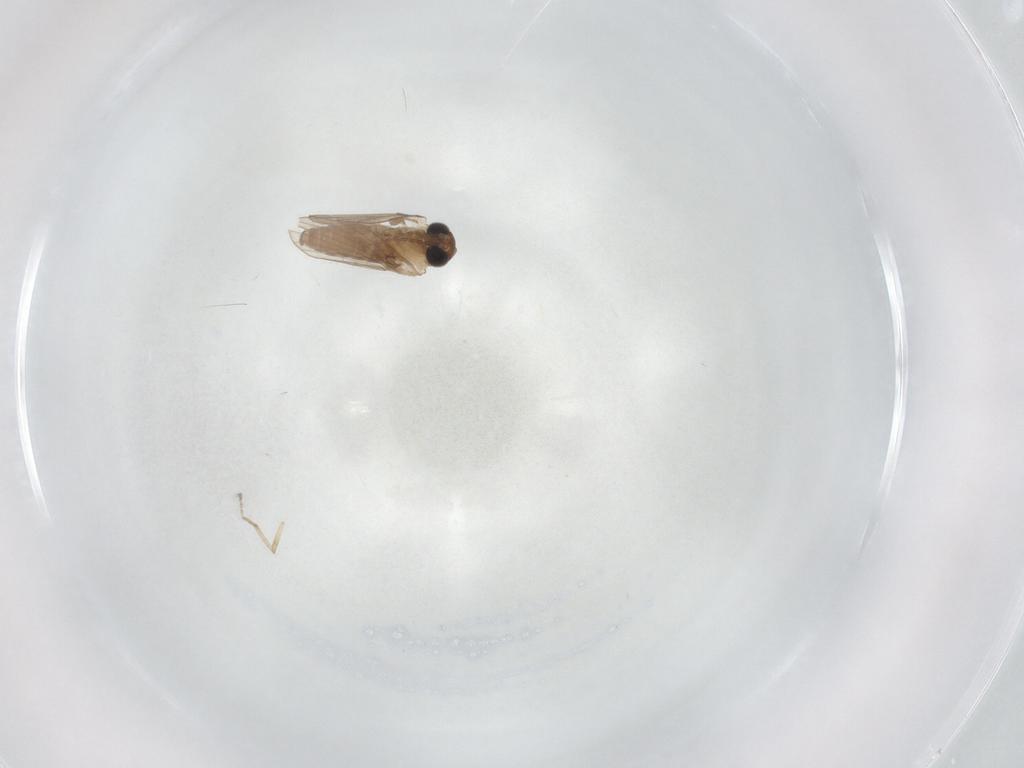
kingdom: Animalia
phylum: Arthropoda
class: Insecta
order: Diptera
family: Ceratopogonidae
